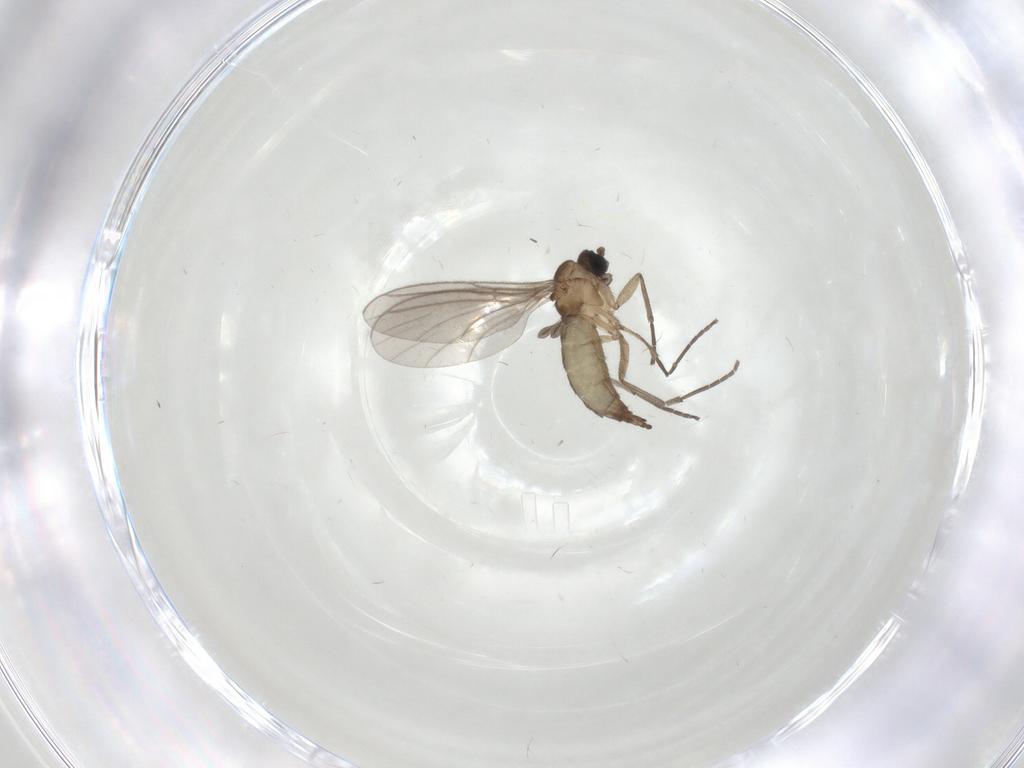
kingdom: Animalia
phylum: Arthropoda
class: Insecta
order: Diptera
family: Sciaridae
